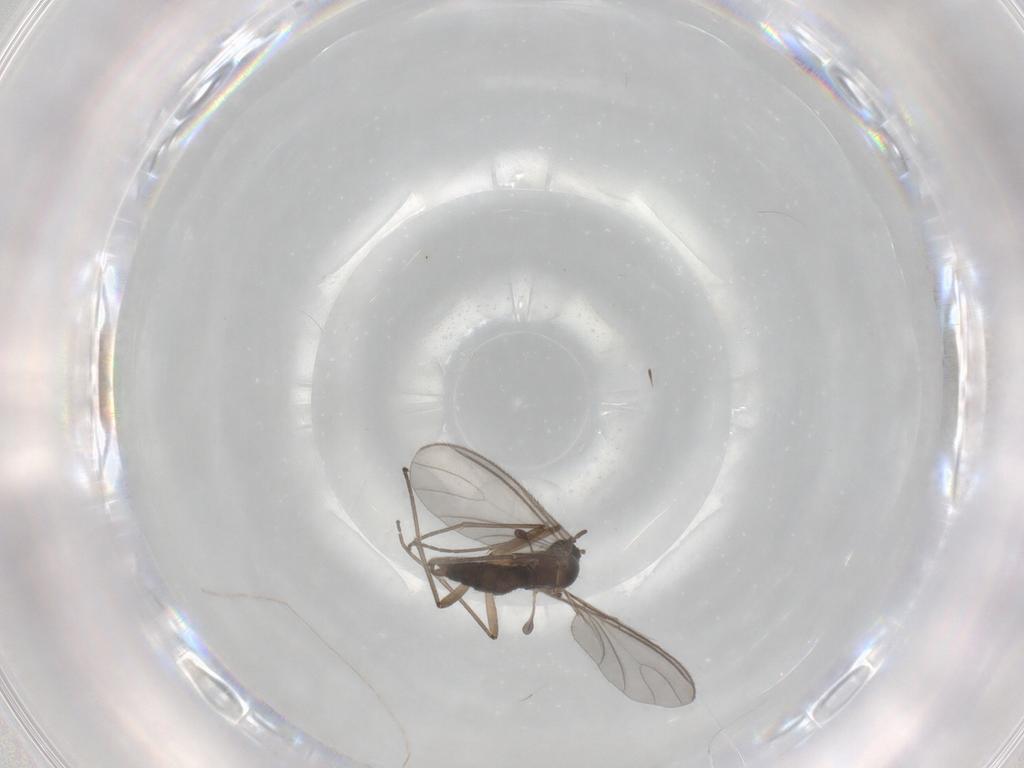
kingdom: Animalia
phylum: Arthropoda
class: Insecta
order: Diptera
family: Sciaridae
